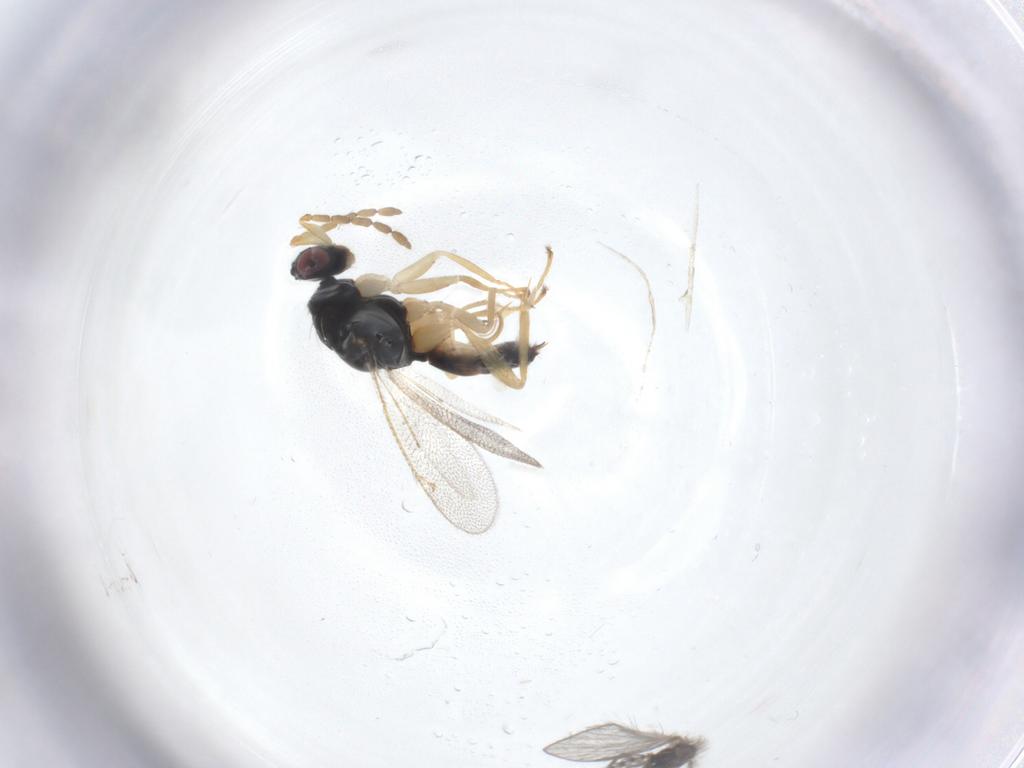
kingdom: Animalia
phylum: Arthropoda
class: Insecta
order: Hymenoptera
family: Eulophidae
